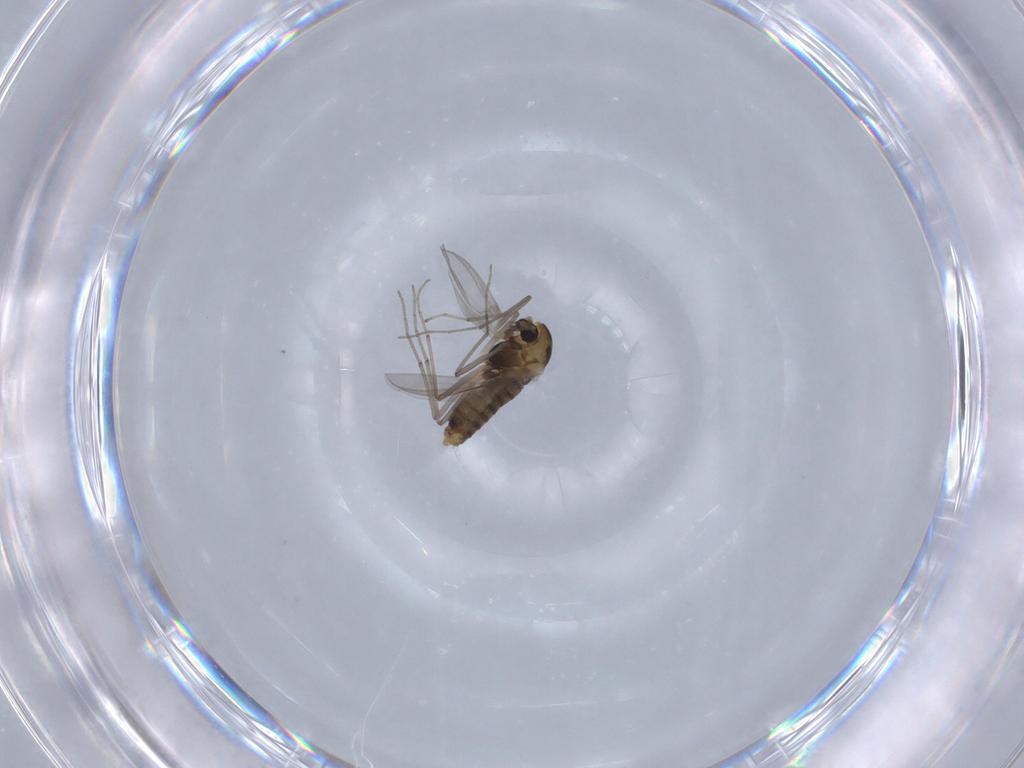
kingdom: Animalia
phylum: Arthropoda
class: Insecta
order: Diptera
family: Chironomidae
